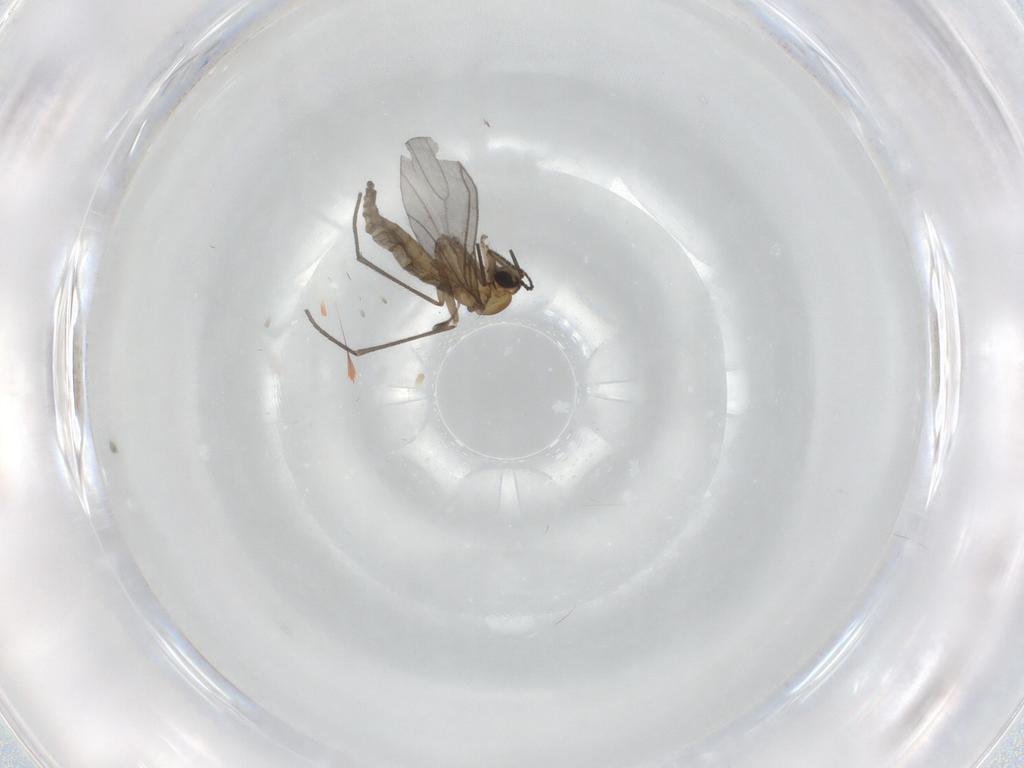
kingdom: Animalia
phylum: Arthropoda
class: Insecta
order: Diptera
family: Sciaridae
